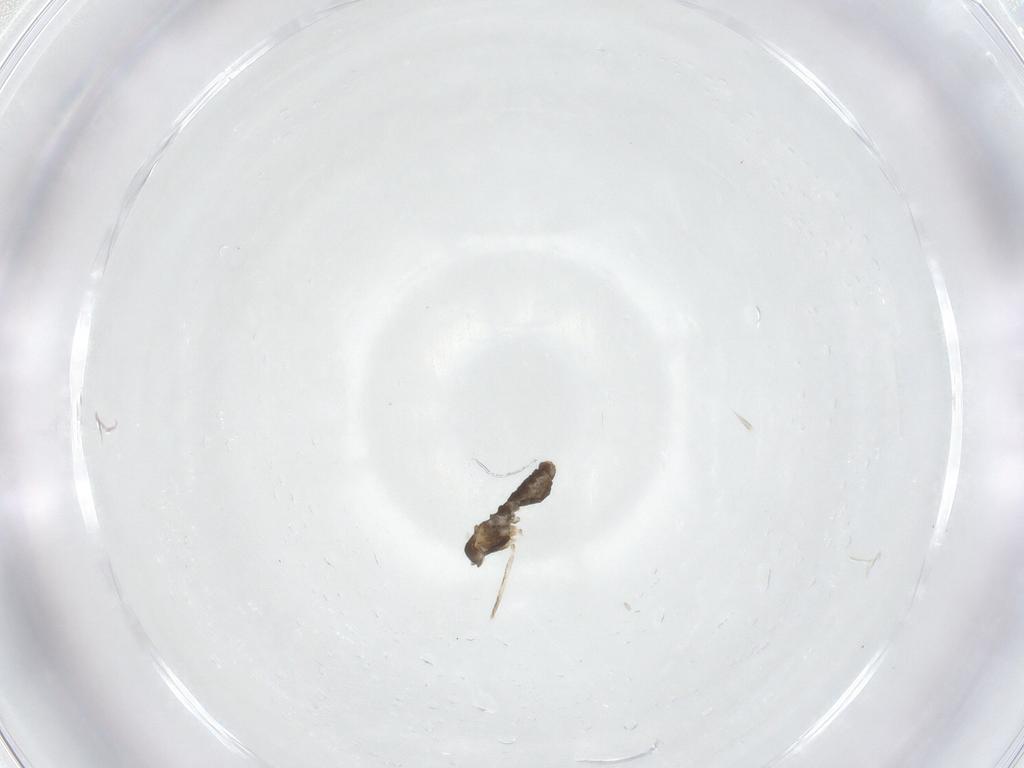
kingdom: Animalia
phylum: Arthropoda
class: Insecta
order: Diptera
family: Cecidomyiidae
